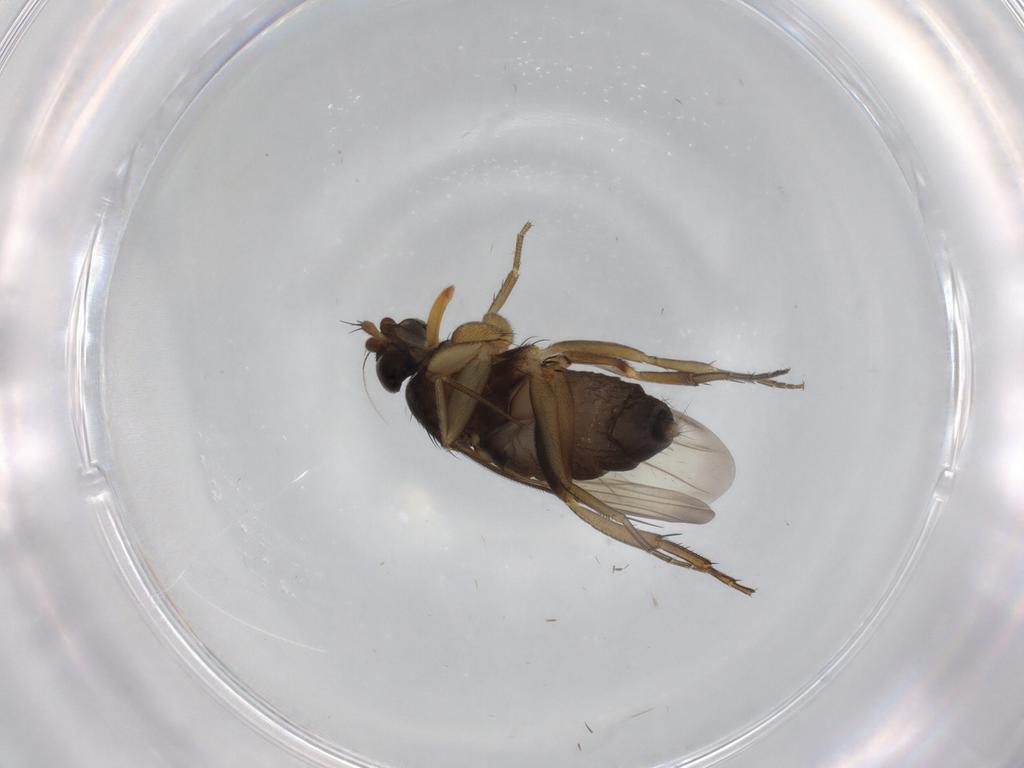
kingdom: Animalia
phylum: Arthropoda
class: Insecta
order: Diptera
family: Phoridae
